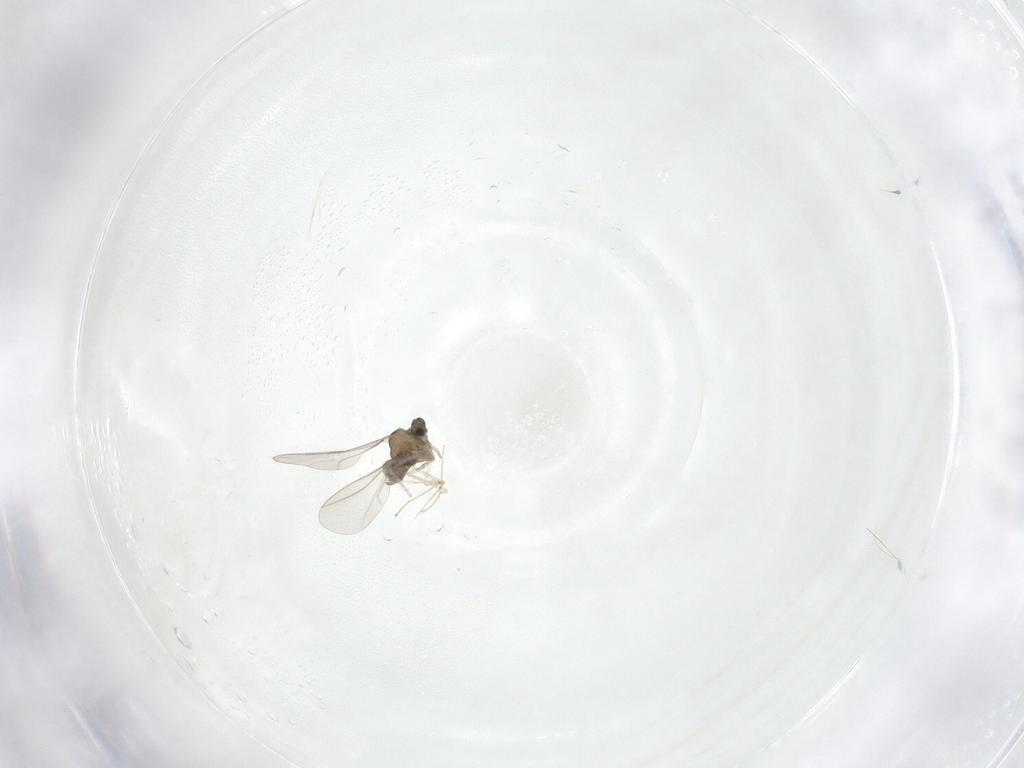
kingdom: Animalia
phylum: Arthropoda
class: Insecta
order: Diptera
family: Cecidomyiidae
